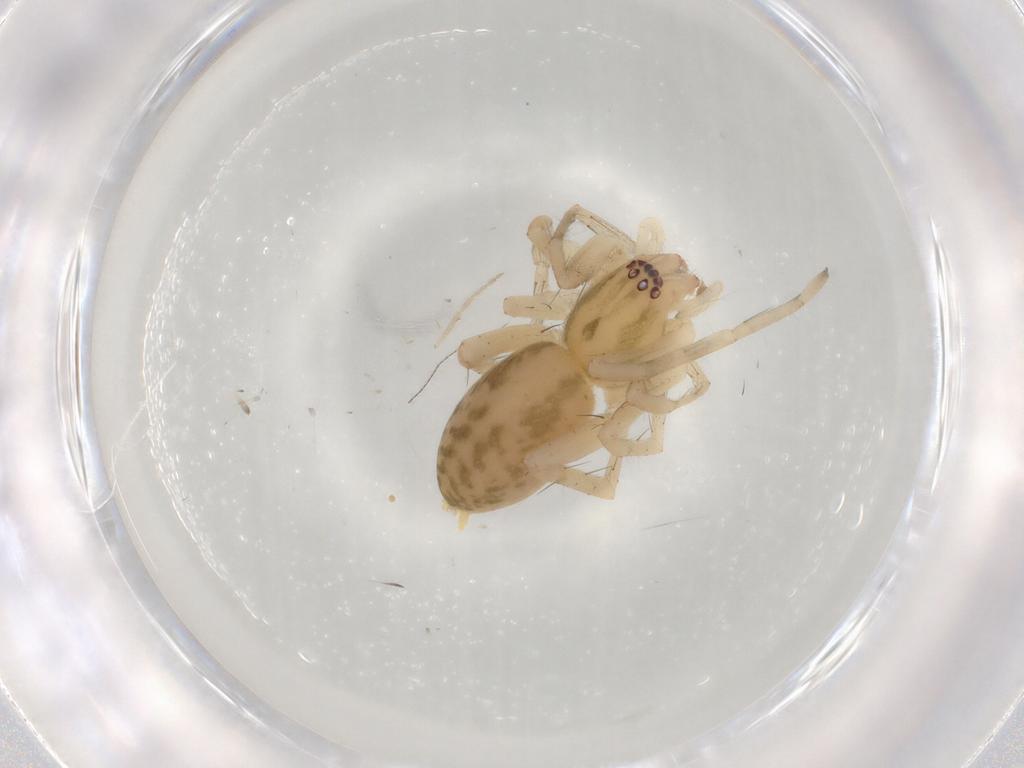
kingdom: Animalia
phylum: Arthropoda
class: Arachnida
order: Araneae
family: Anyphaenidae
